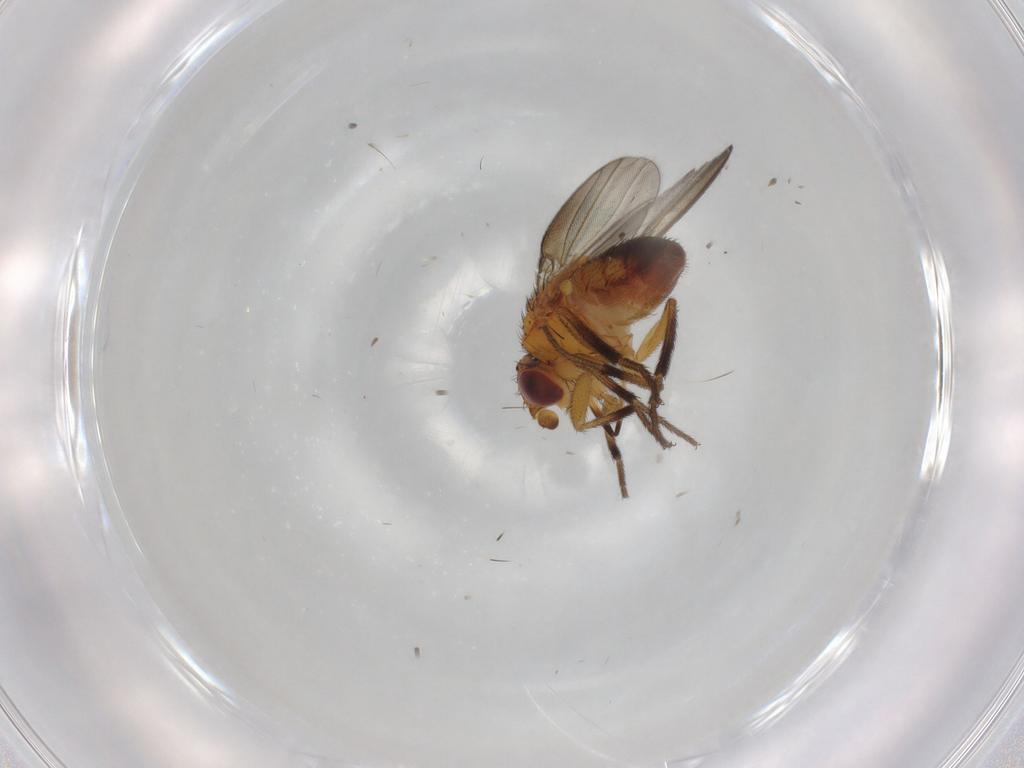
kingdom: Animalia
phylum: Arthropoda
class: Insecta
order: Diptera
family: Milichiidae
